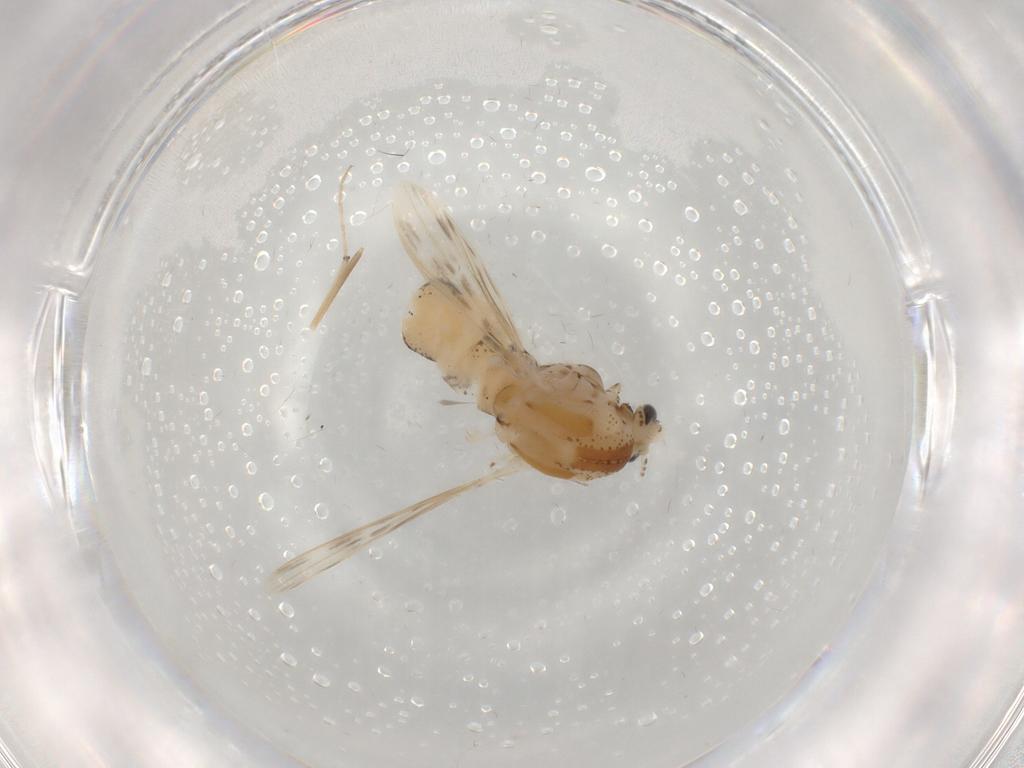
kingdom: Animalia
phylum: Arthropoda
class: Insecta
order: Diptera
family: Chaoboridae
